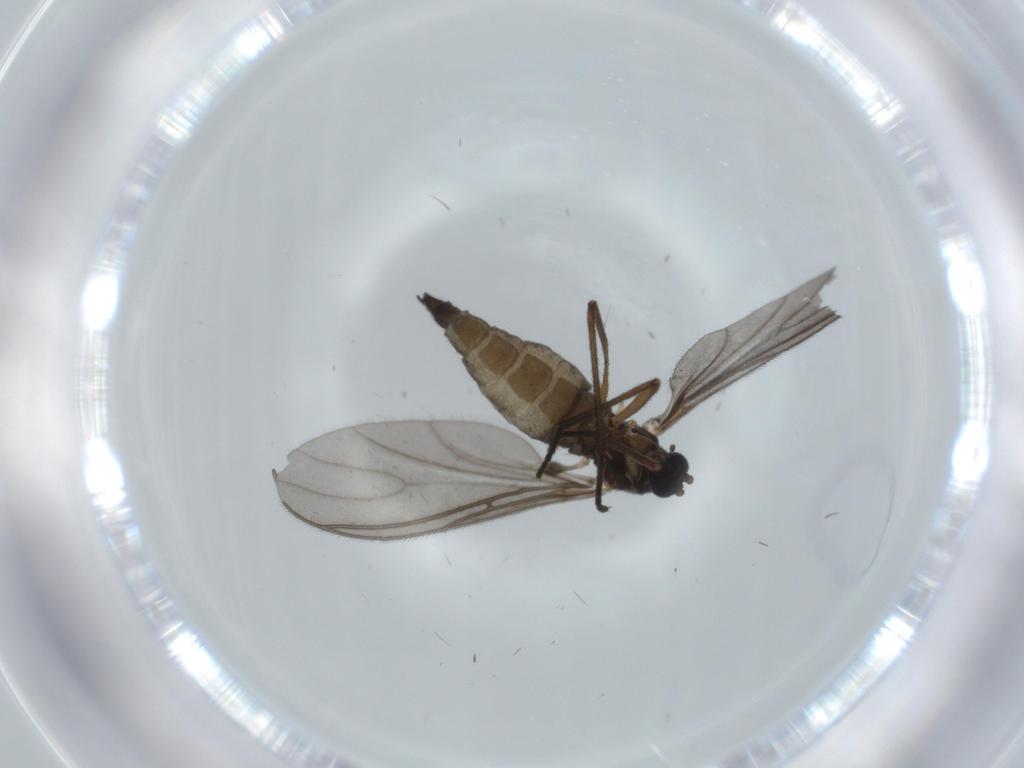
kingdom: Animalia
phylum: Arthropoda
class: Insecta
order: Diptera
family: Sciaridae
